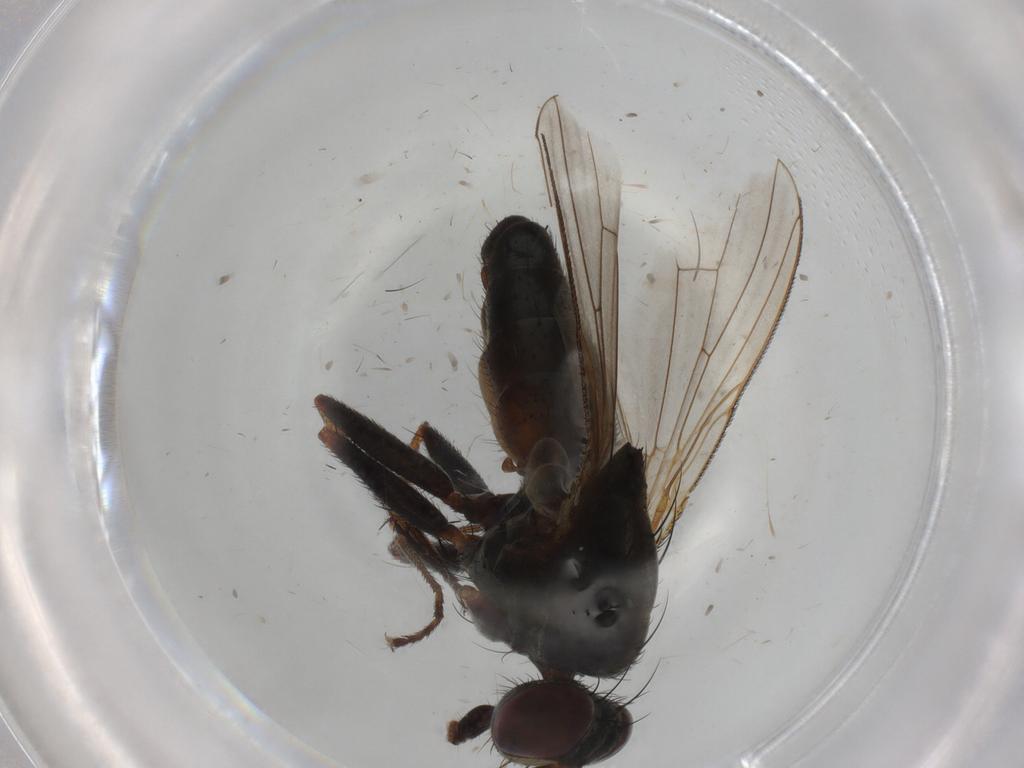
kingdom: Animalia
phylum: Arthropoda
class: Insecta
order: Diptera
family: Muscidae
